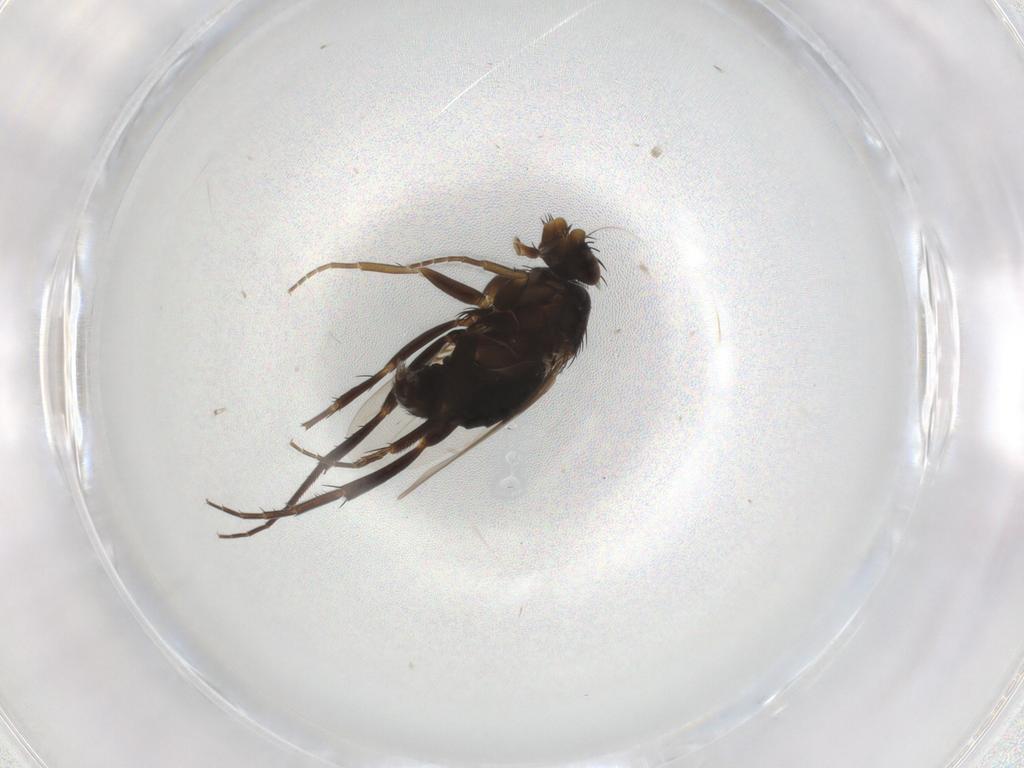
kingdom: Animalia
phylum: Arthropoda
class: Insecta
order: Diptera
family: Phoridae
